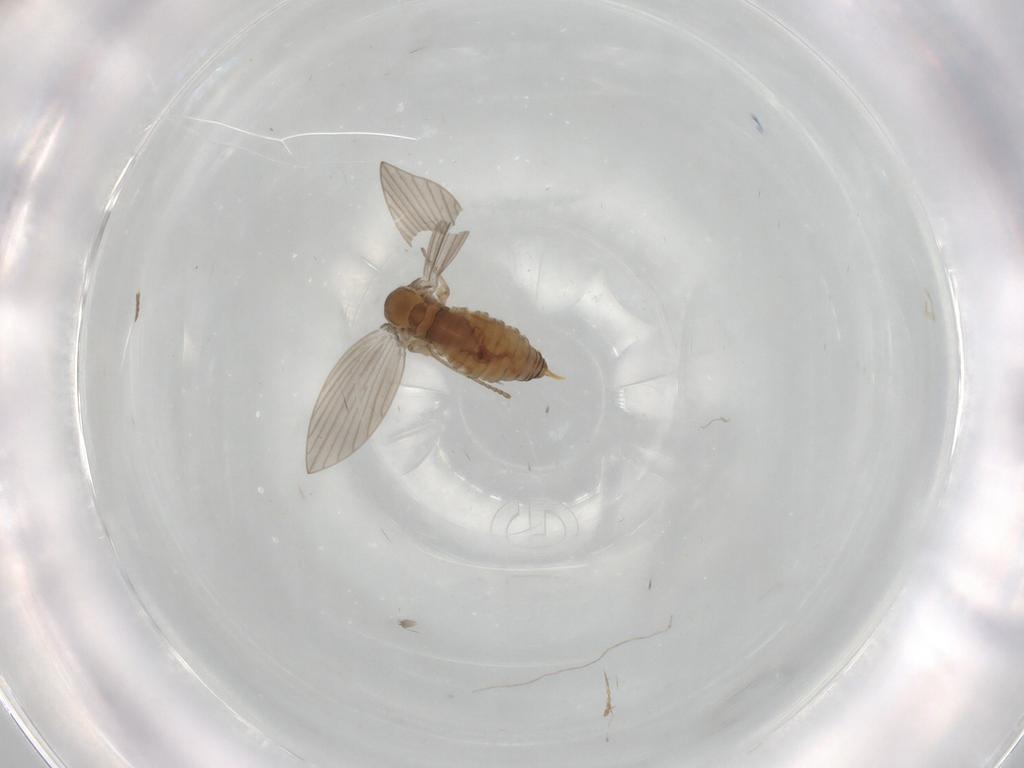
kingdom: Animalia
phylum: Arthropoda
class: Insecta
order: Diptera
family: Psychodidae
